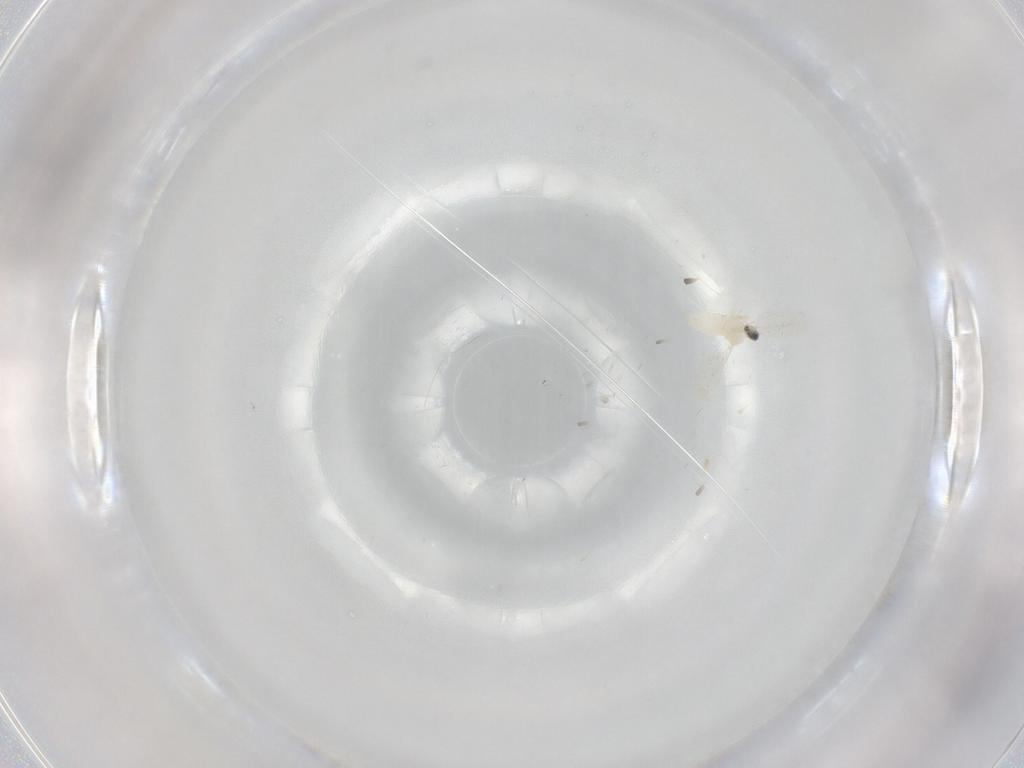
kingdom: Animalia
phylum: Arthropoda
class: Insecta
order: Diptera
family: Cecidomyiidae
